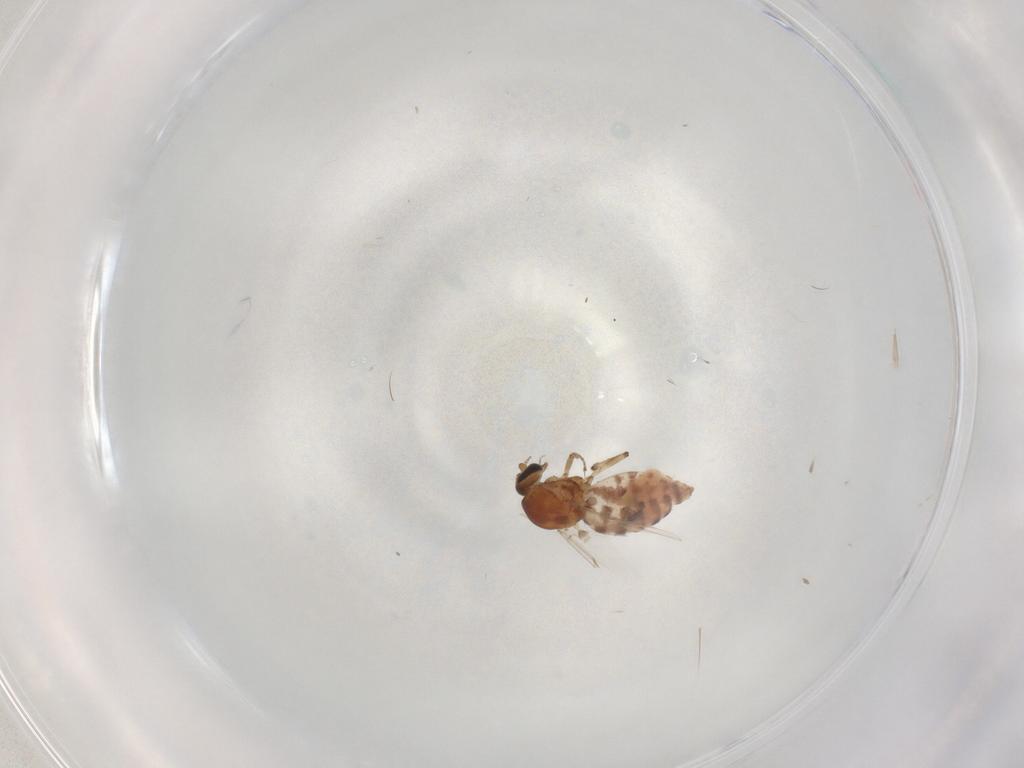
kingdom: Animalia
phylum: Arthropoda
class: Insecta
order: Diptera
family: Ceratopogonidae
